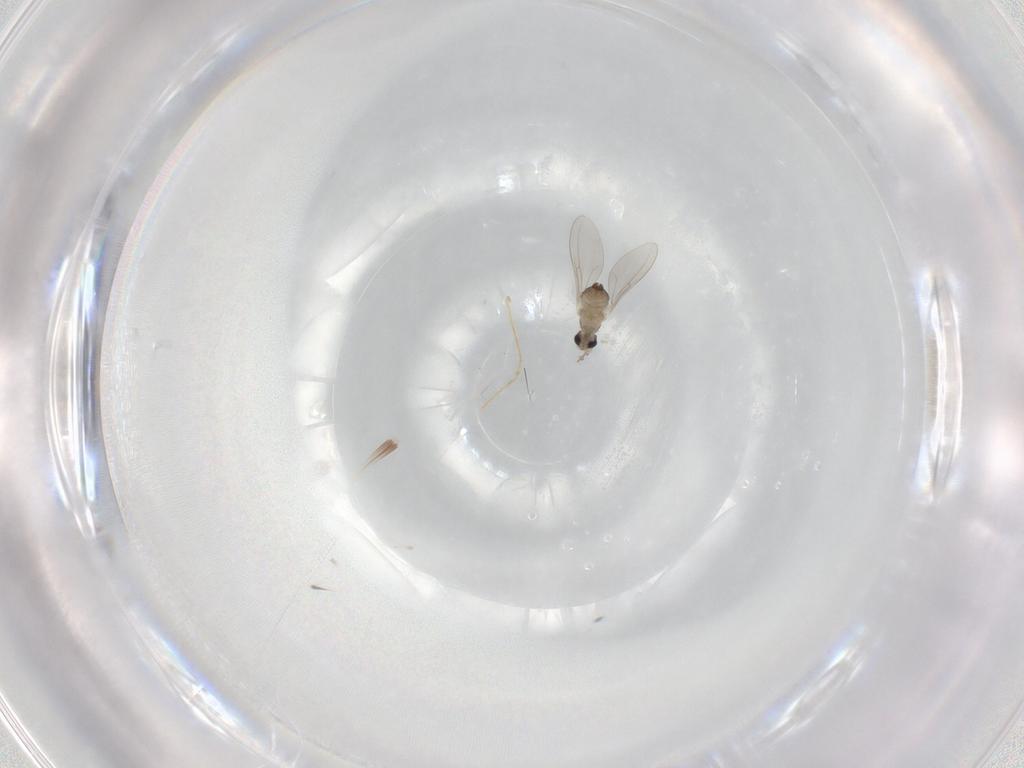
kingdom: Animalia
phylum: Arthropoda
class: Insecta
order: Diptera
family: Cecidomyiidae
